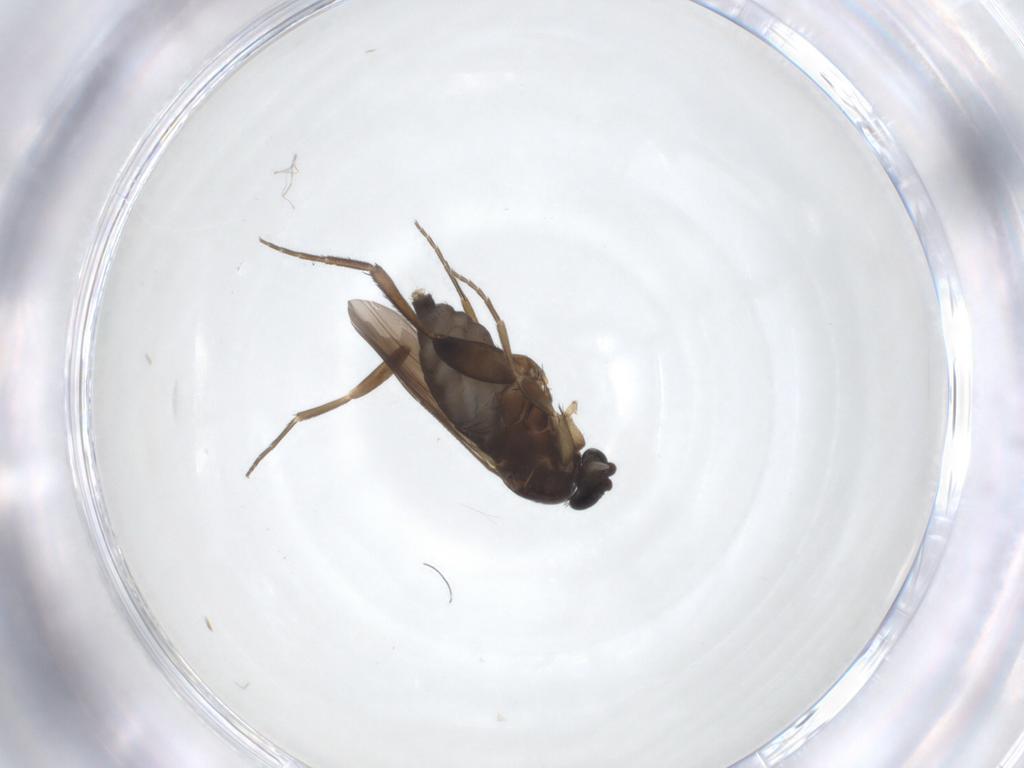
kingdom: Animalia
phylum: Arthropoda
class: Insecta
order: Diptera
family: Phoridae
